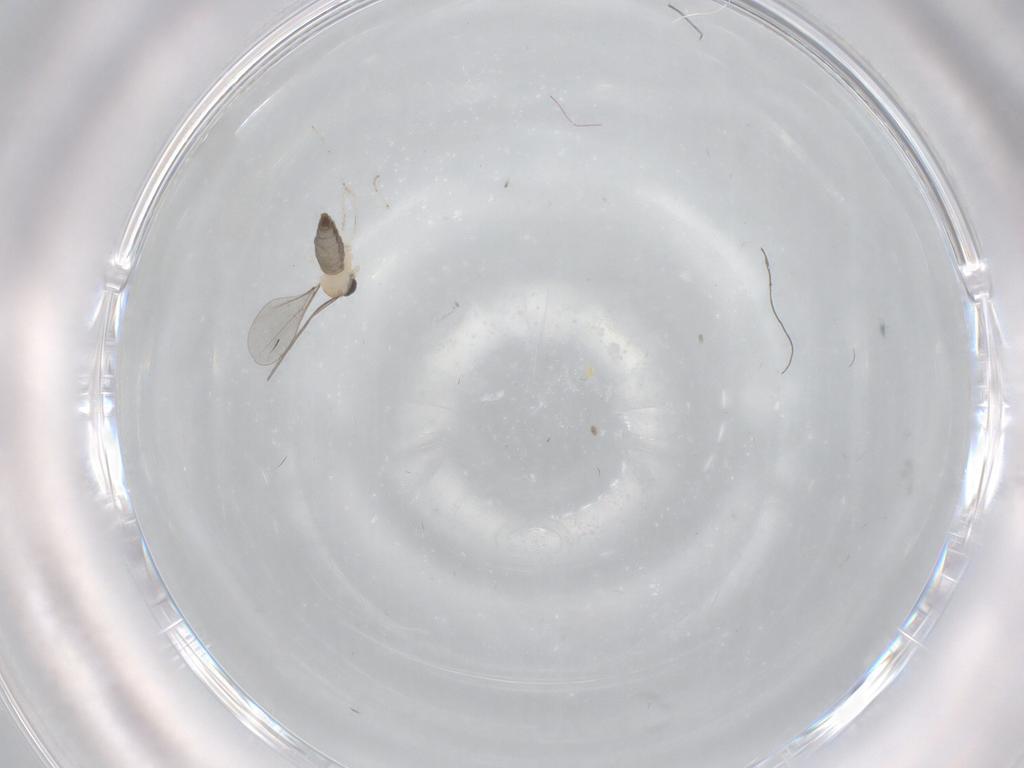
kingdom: Animalia
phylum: Arthropoda
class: Insecta
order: Diptera
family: Cecidomyiidae
